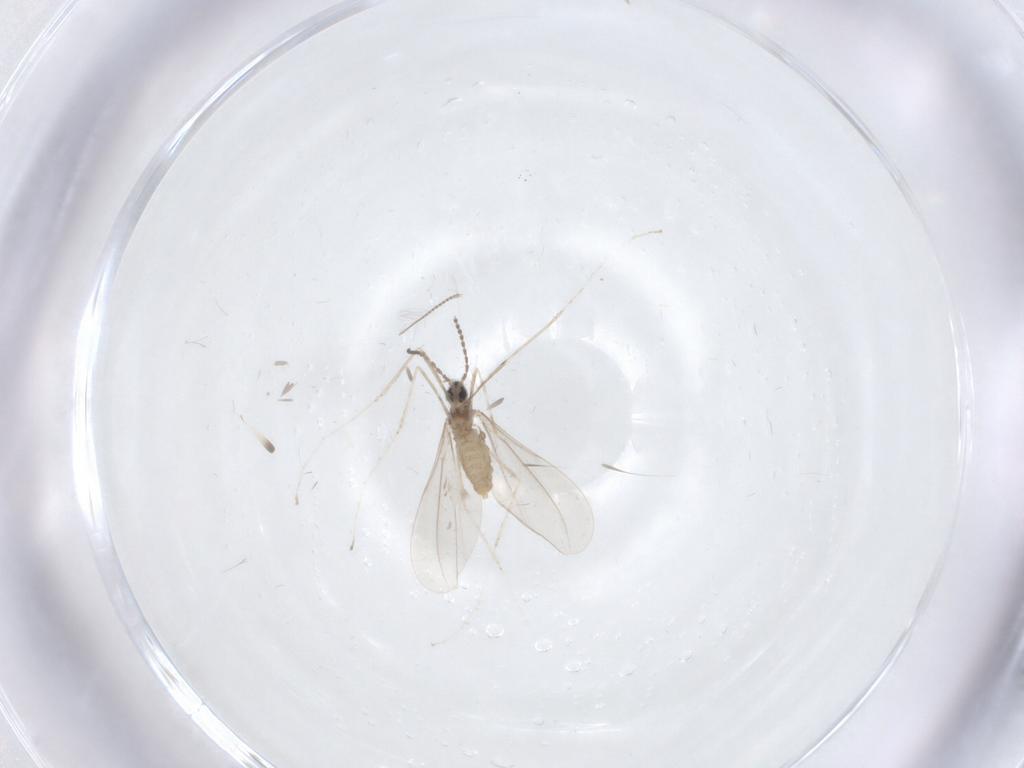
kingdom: Animalia
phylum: Arthropoda
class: Insecta
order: Diptera
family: Chironomidae
